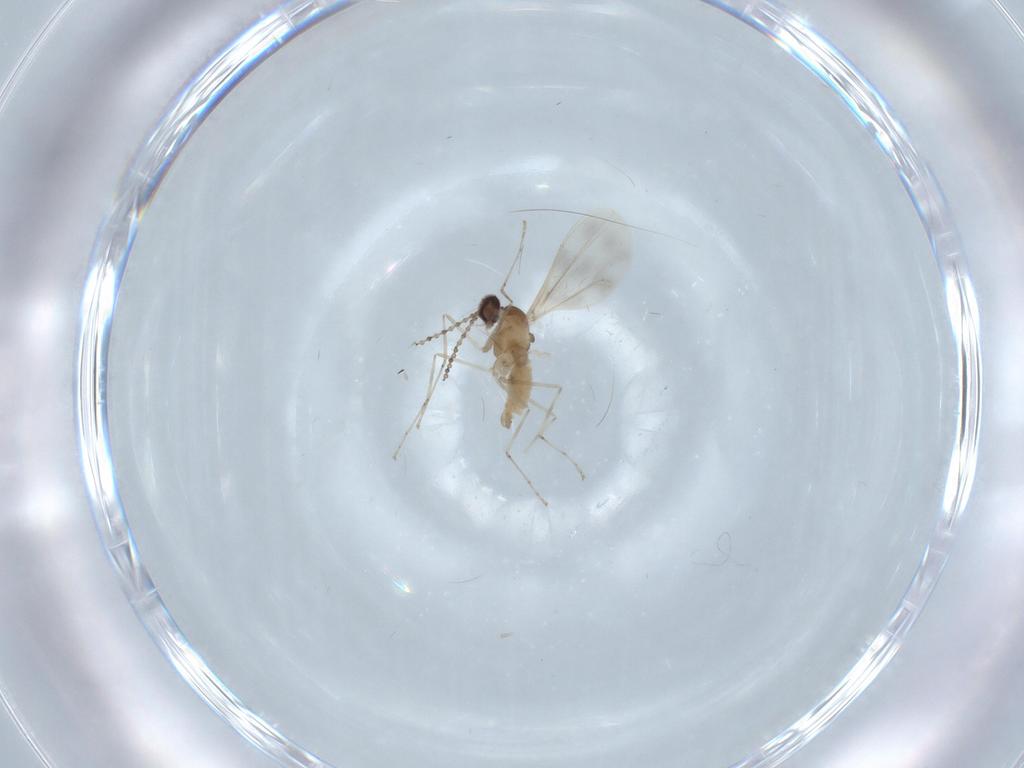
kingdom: Animalia
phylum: Arthropoda
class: Insecta
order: Diptera
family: Cecidomyiidae
